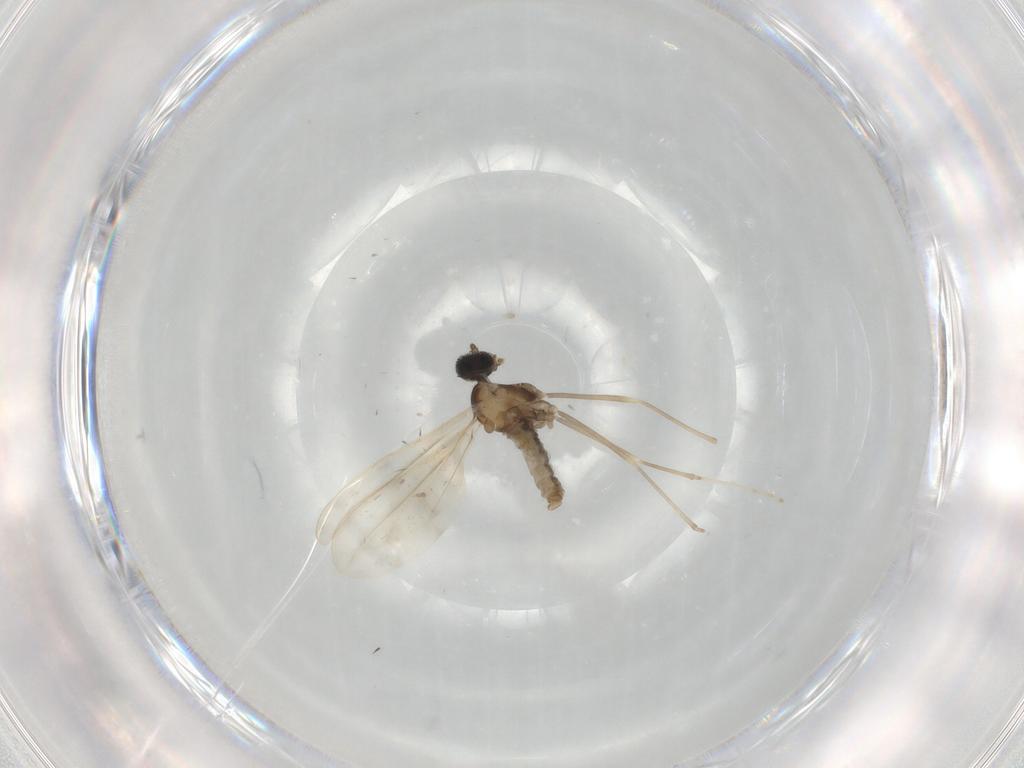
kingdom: Animalia
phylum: Arthropoda
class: Insecta
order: Diptera
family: Cecidomyiidae
